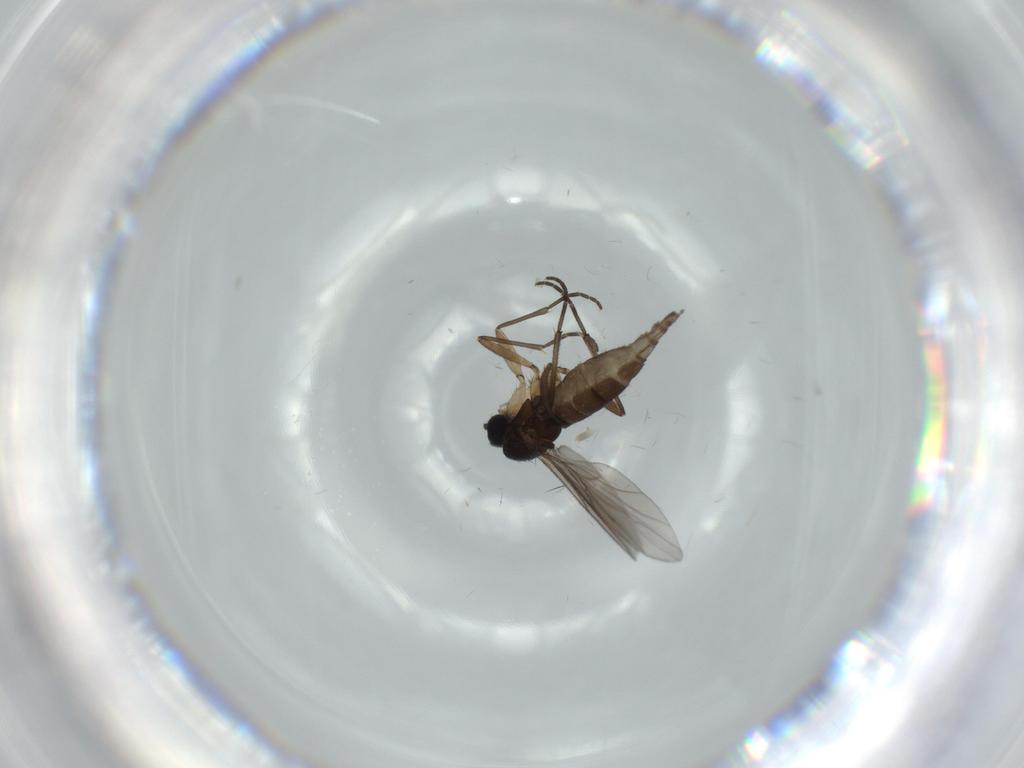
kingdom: Animalia
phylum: Arthropoda
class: Insecta
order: Diptera
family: Sciaridae
